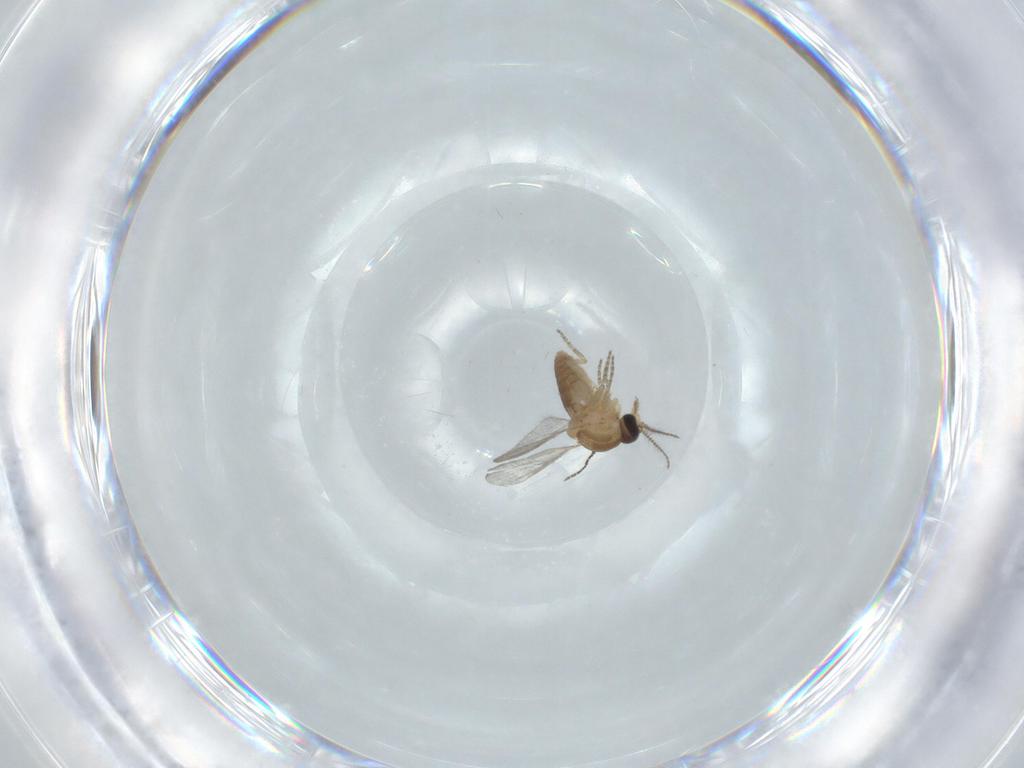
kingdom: Animalia
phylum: Arthropoda
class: Insecta
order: Diptera
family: Sciaridae
